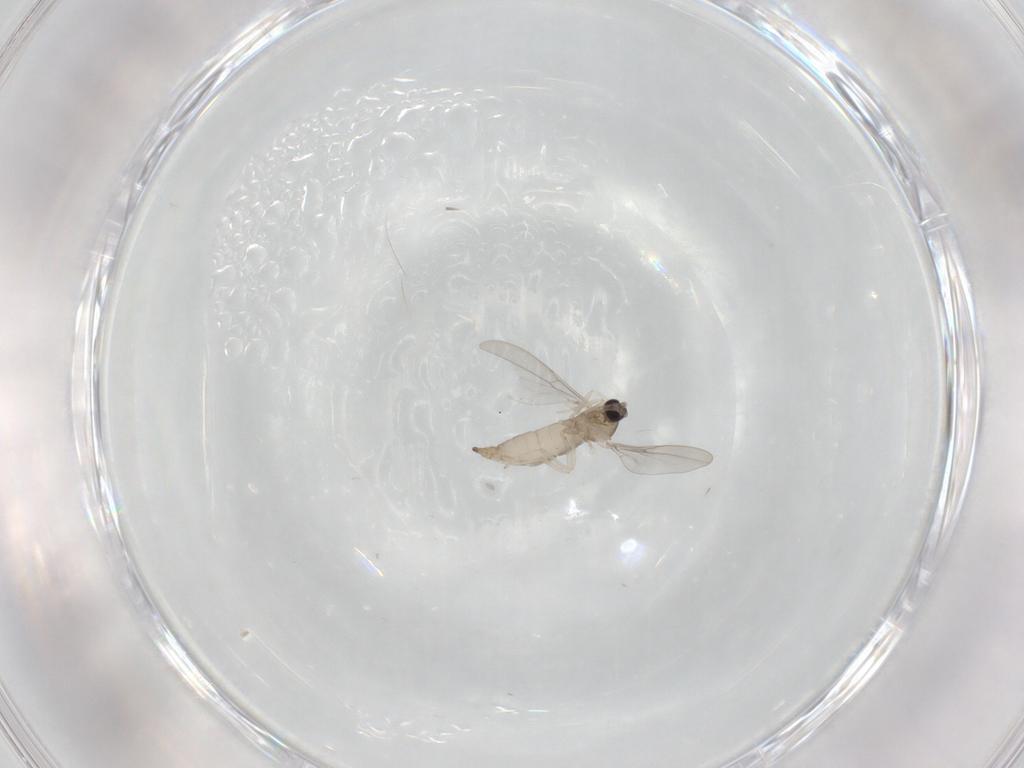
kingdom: Animalia
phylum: Arthropoda
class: Insecta
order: Diptera
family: Cecidomyiidae
